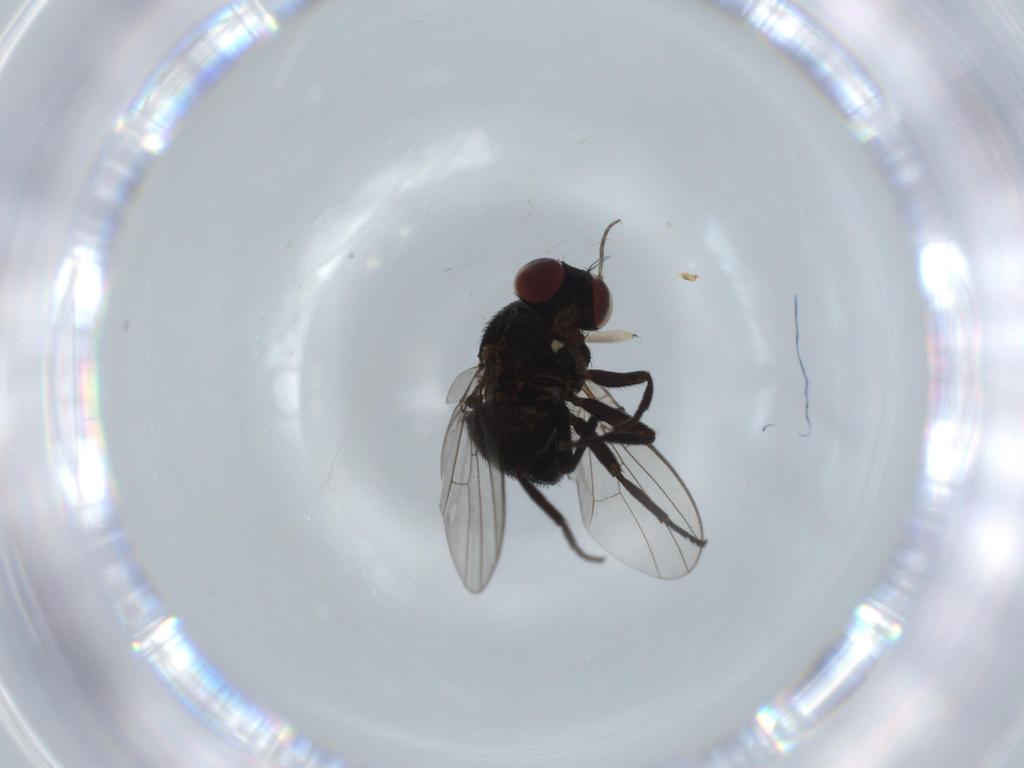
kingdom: Animalia
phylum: Arthropoda
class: Insecta
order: Diptera
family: Sciaridae
